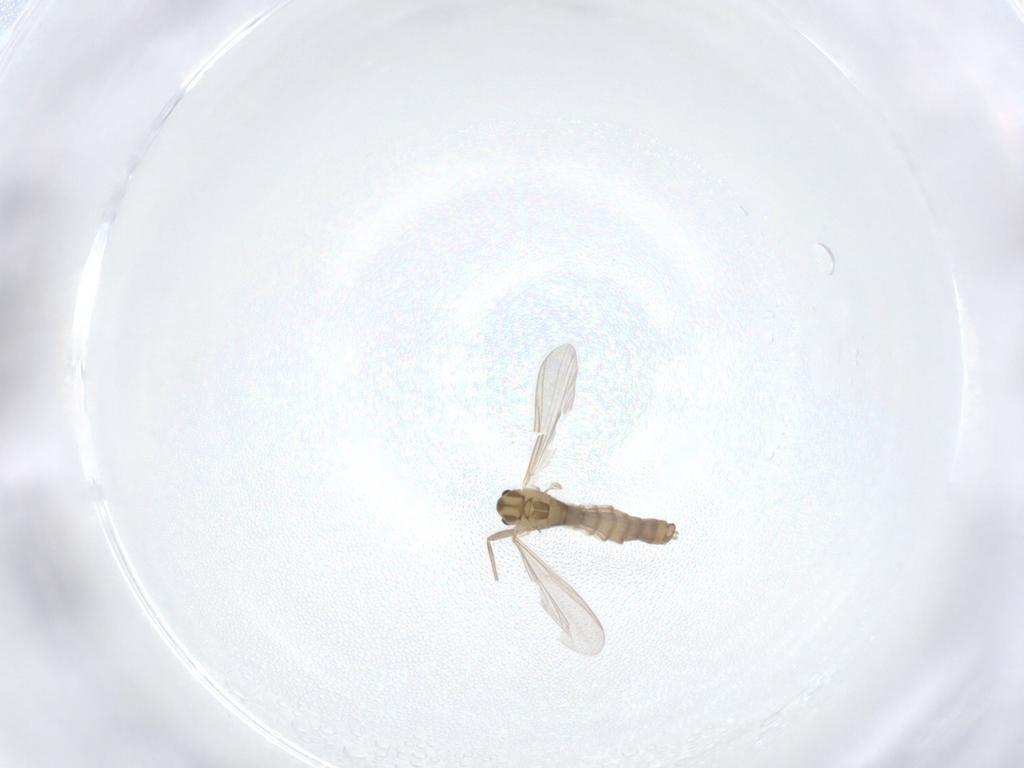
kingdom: Animalia
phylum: Arthropoda
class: Insecta
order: Diptera
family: Chironomidae
